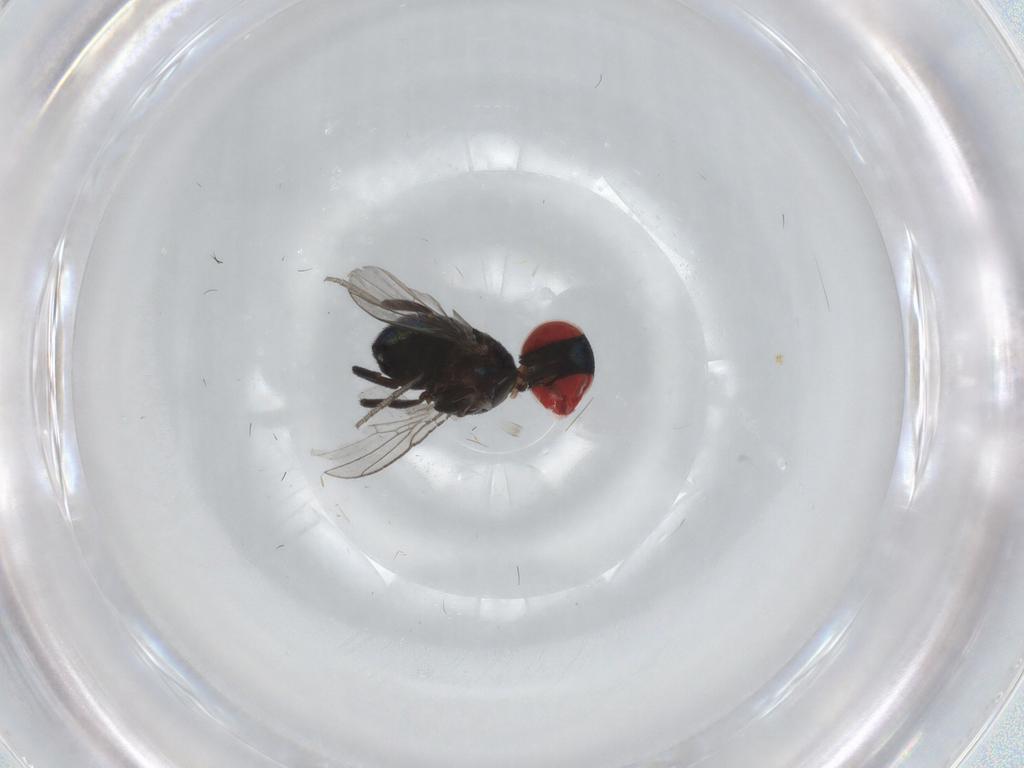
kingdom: Animalia
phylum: Arthropoda
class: Insecta
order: Diptera
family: Cryptochetidae
